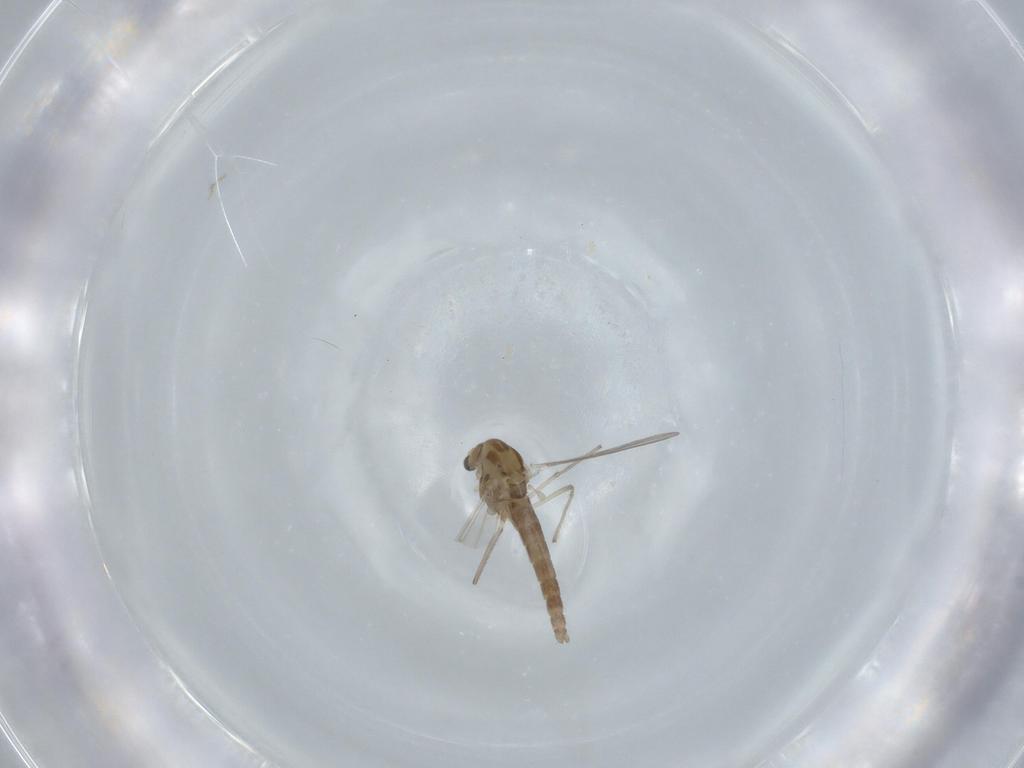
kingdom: Animalia
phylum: Arthropoda
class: Insecta
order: Diptera
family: Chironomidae
